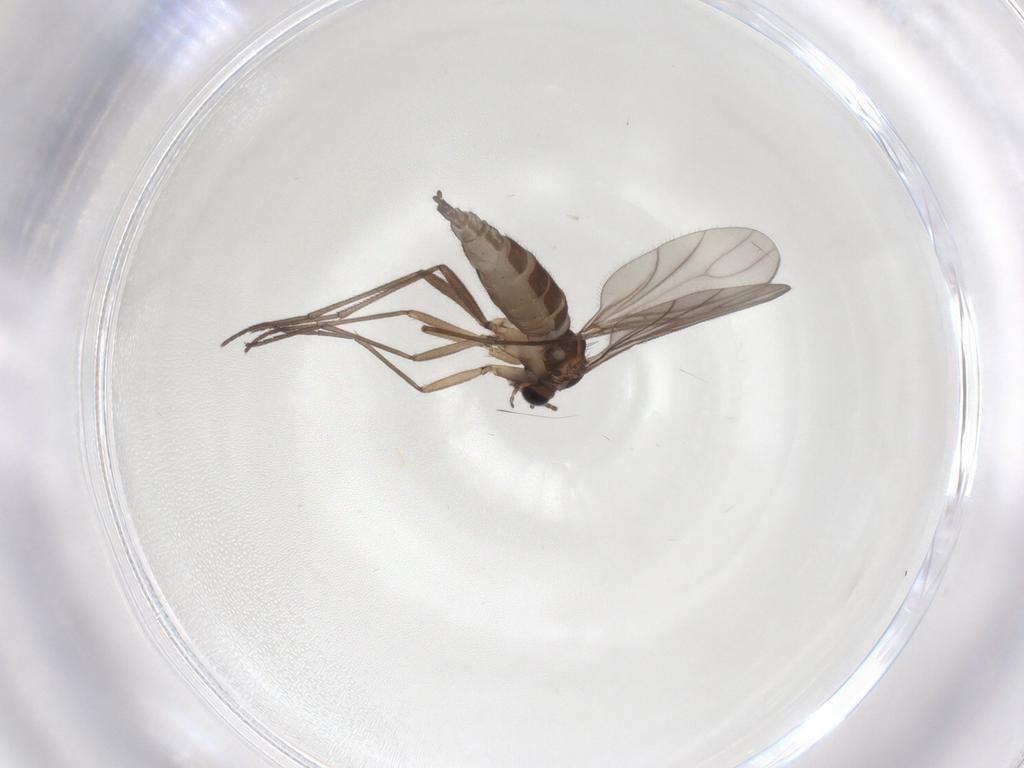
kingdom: Animalia
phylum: Arthropoda
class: Insecta
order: Diptera
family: Sciaridae
